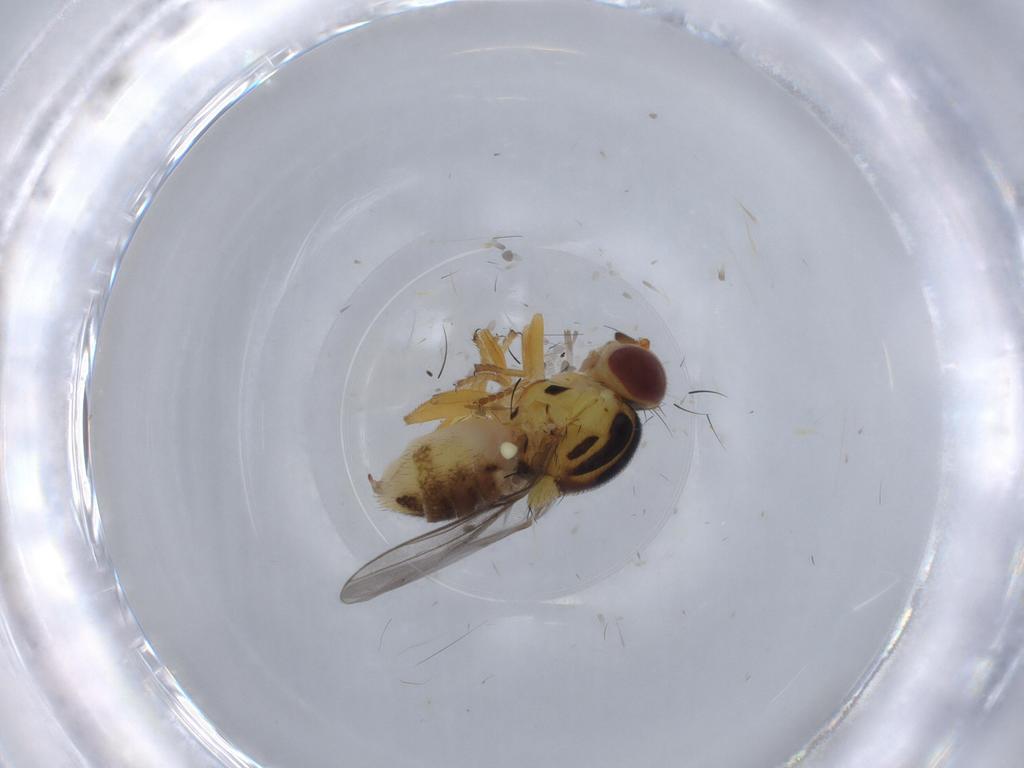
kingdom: Animalia
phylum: Arthropoda
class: Insecta
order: Diptera
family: Chloropidae
